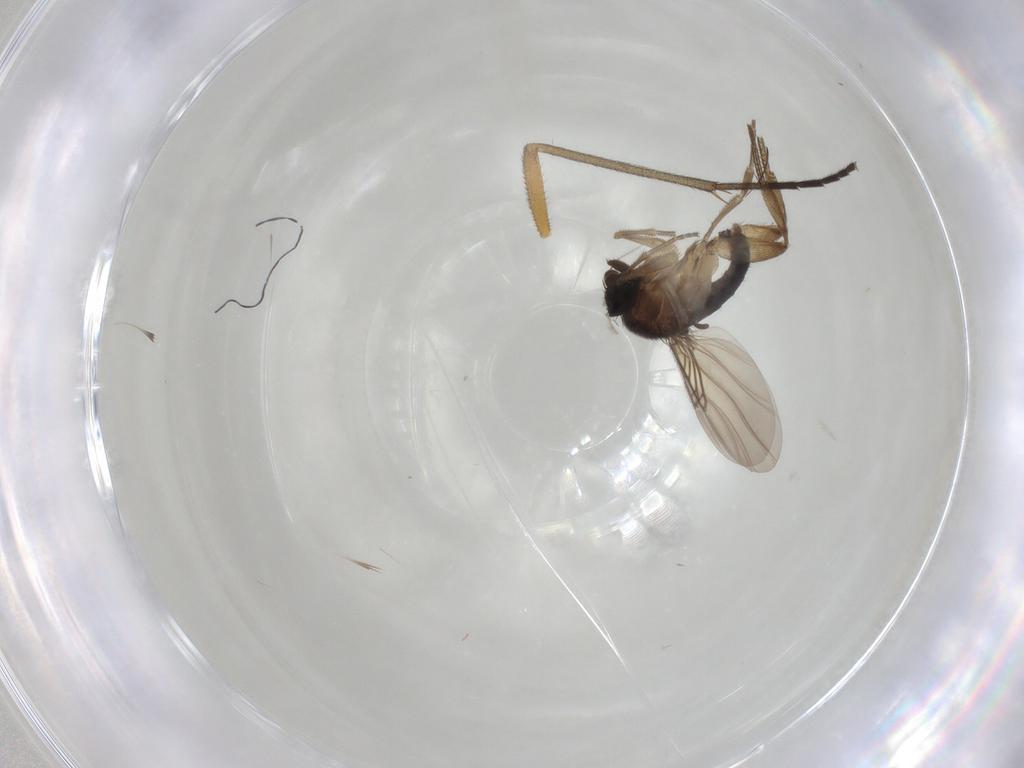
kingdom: Animalia
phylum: Arthropoda
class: Insecta
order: Diptera
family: Phoridae
